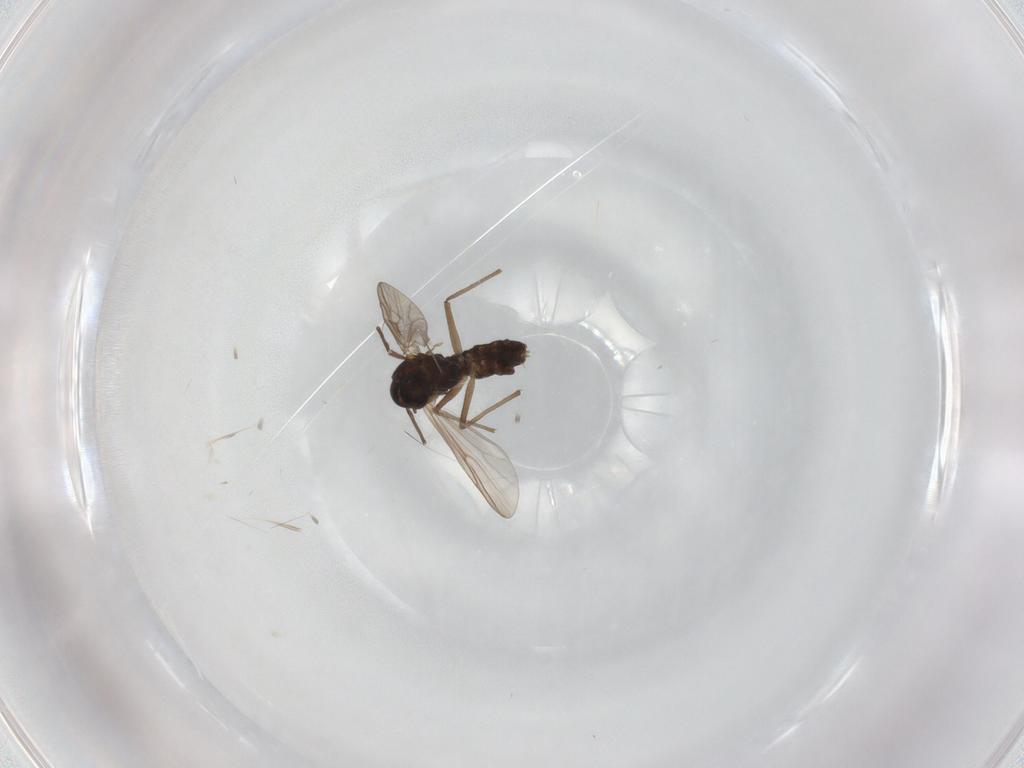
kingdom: Animalia
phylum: Arthropoda
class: Insecta
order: Diptera
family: Chironomidae
